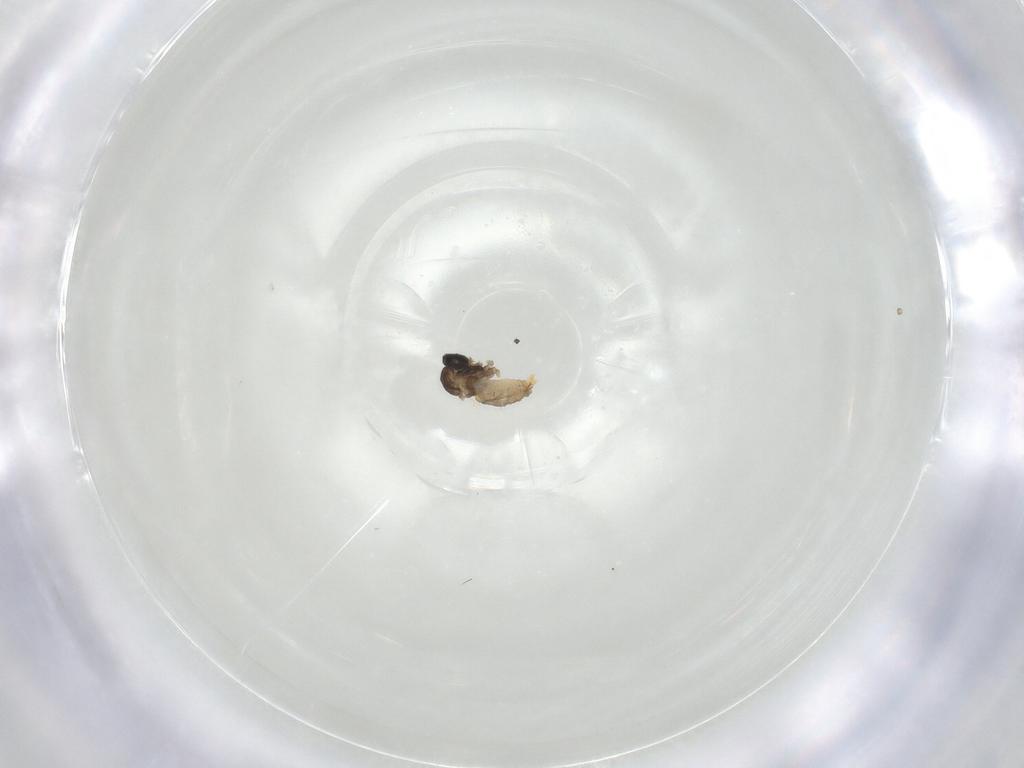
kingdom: Animalia
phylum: Arthropoda
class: Insecta
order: Diptera
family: Cecidomyiidae
